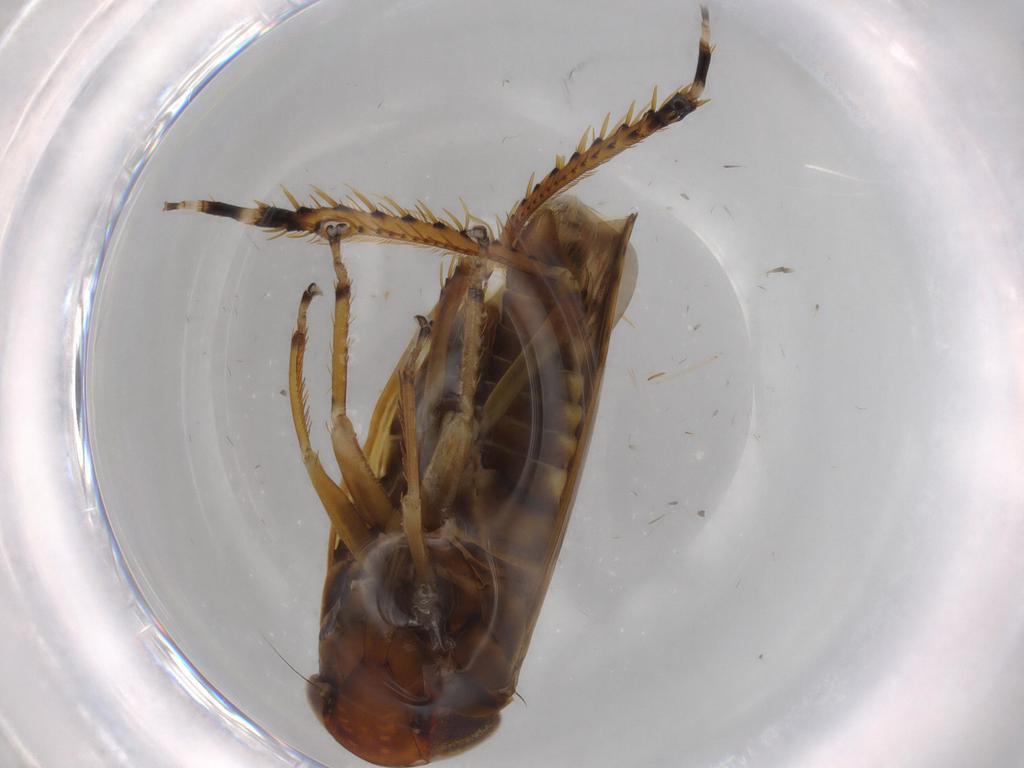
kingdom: Animalia
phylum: Arthropoda
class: Insecta
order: Hemiptera
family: Cicadellidae
